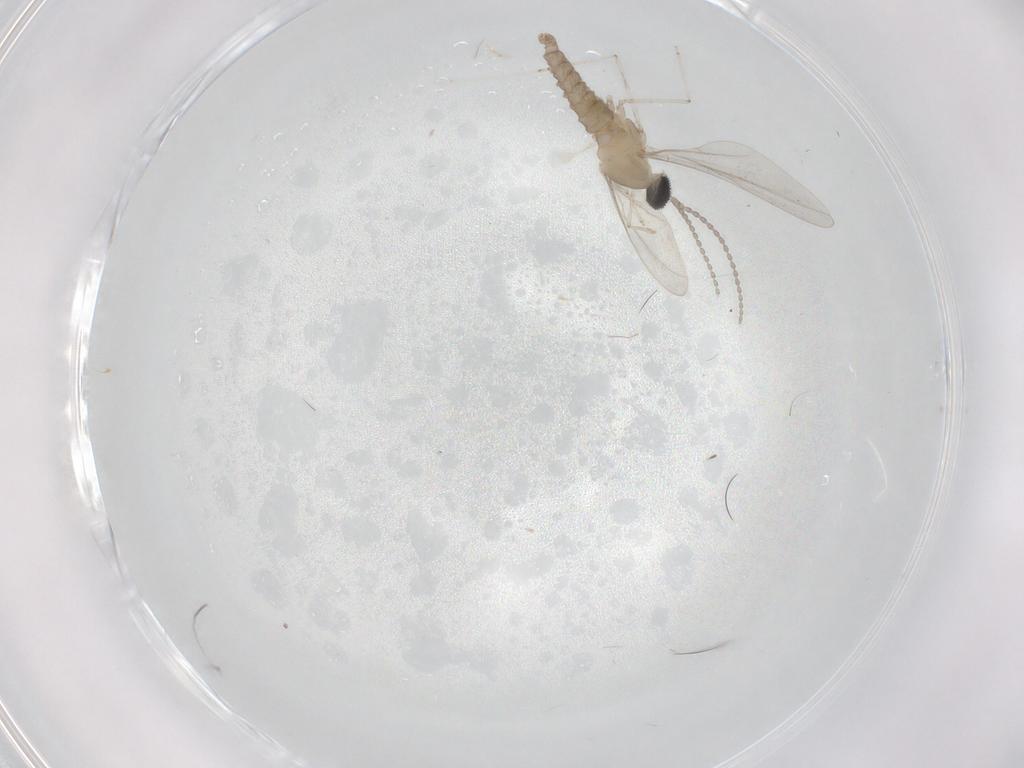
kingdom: Animalia
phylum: Arthropoda
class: Insecta
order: Diptera
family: Cecidomyiidae
